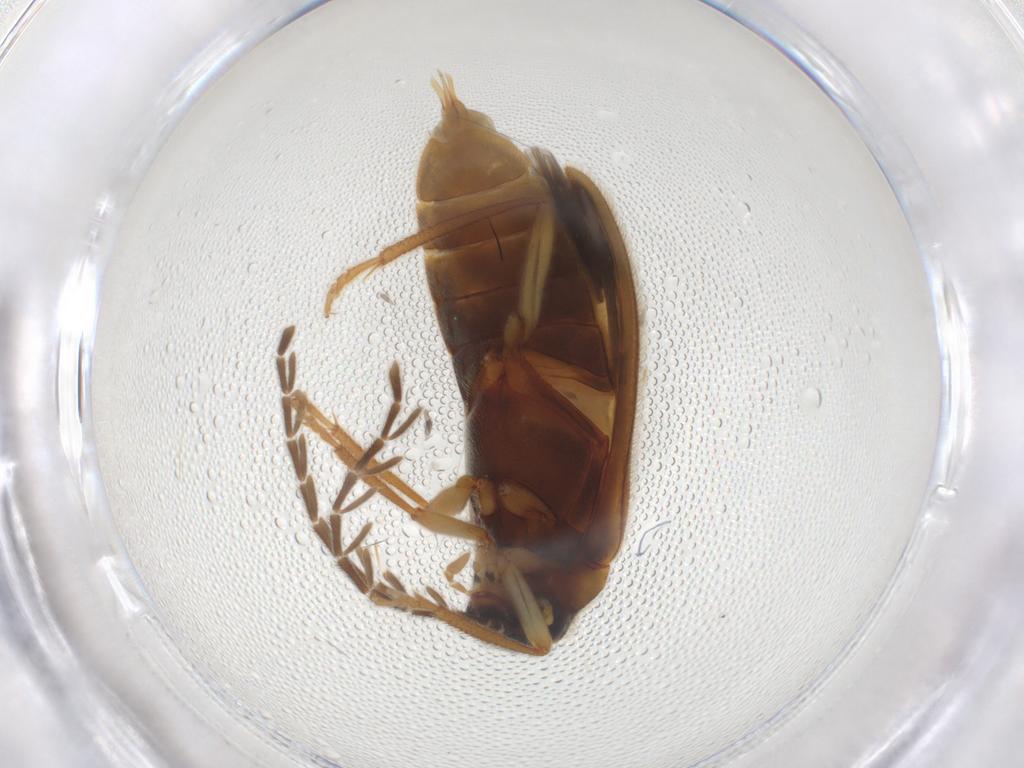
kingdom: Animalia
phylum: Arthropoda
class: Insecta
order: Coleoptera
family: Ptilodactylidae
